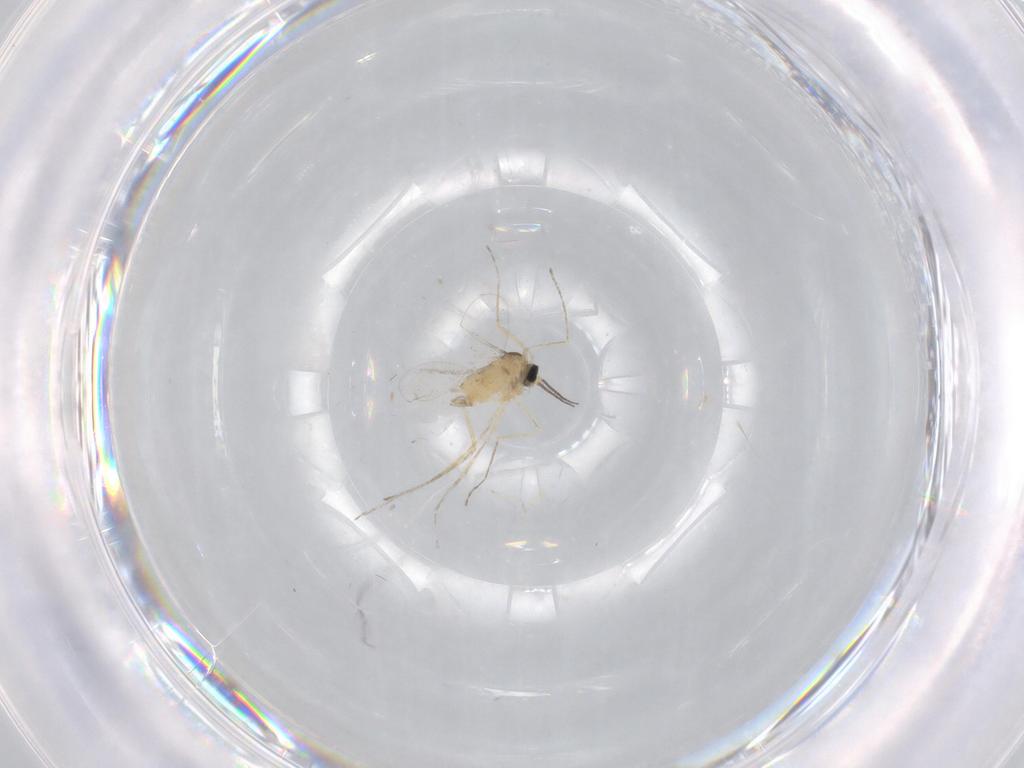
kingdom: Animalia
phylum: Arthropoda
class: Insecta
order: Diptera
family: Cecidomyiidae
